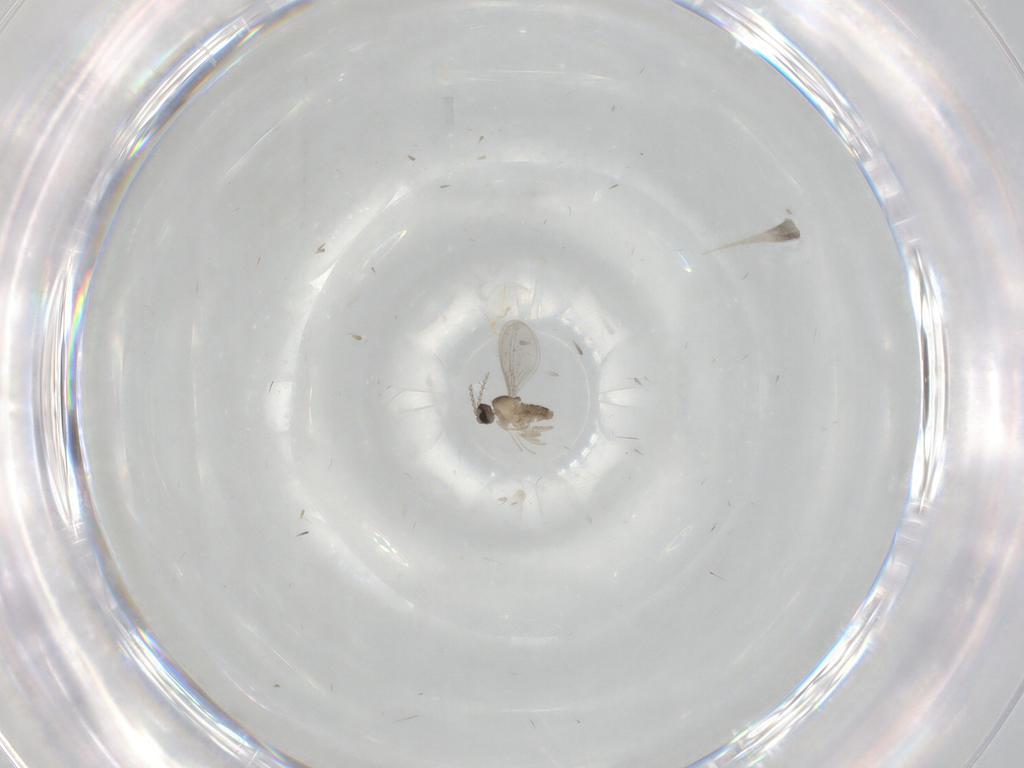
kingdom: Animalia
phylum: Arthropoda
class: Insecta
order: Diptera
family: Cecidomyiidae
